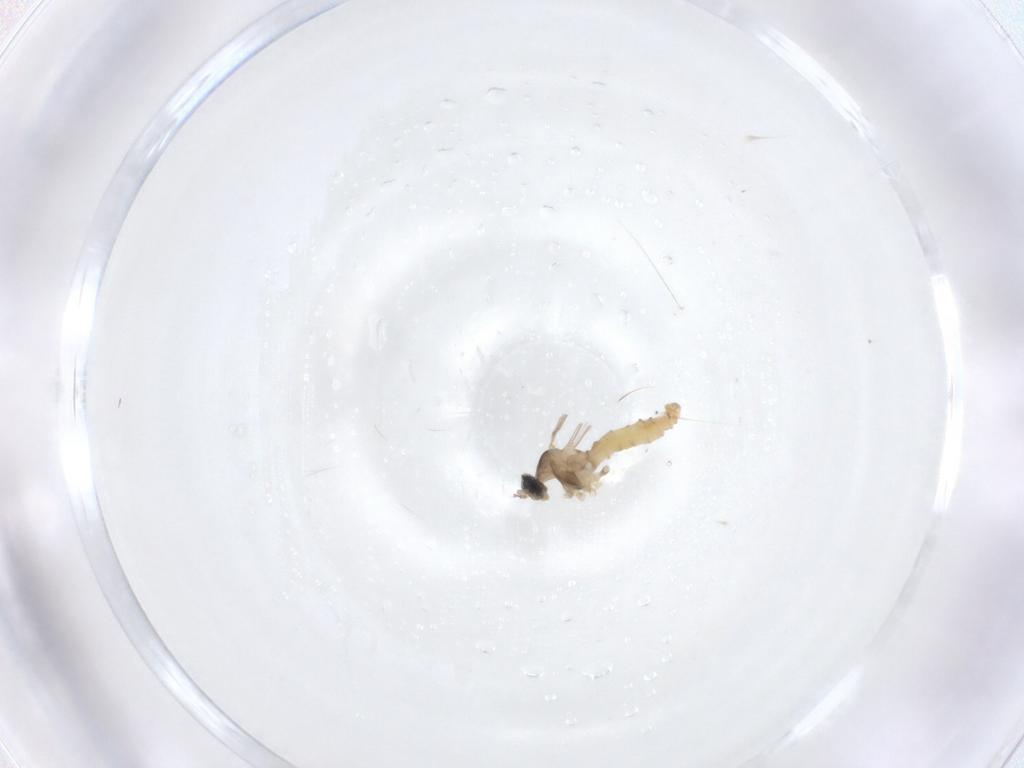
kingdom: Animalia
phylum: Arthropoda
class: Insecta
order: Diptera
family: Cecidomyiidae
